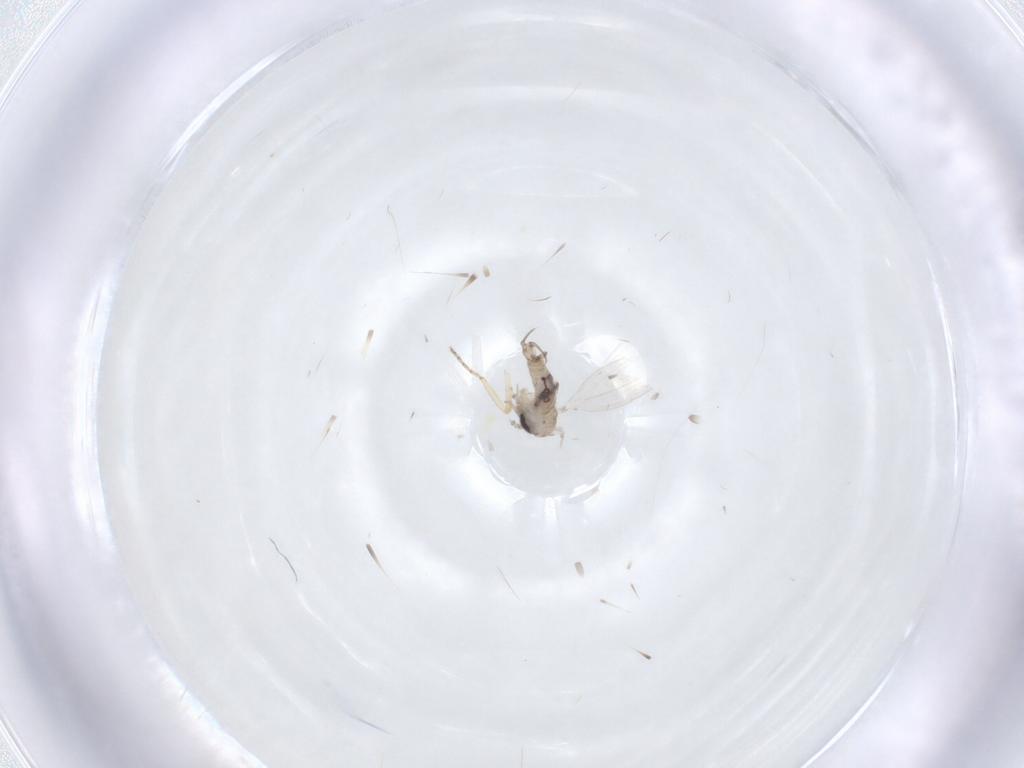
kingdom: Animalia
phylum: Arthropoda
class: Insecta
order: Diptera
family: Psychodidae
